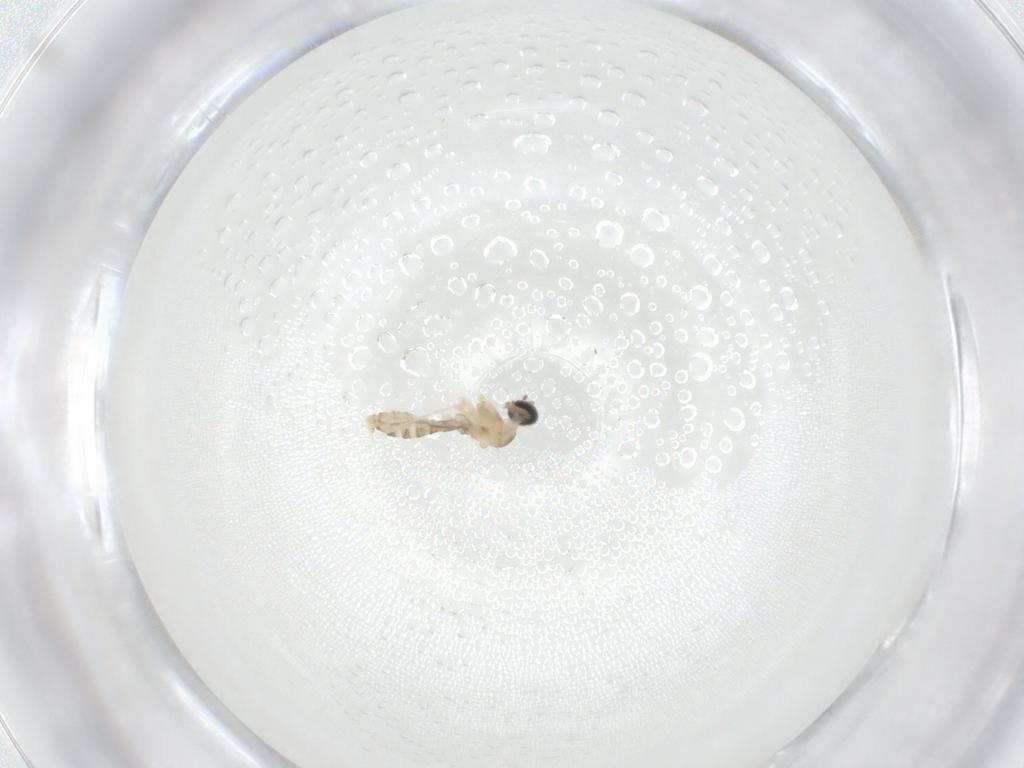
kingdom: Animalia
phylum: Arthropoda
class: Insecta
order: Diptera
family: Cecidomyiidae
